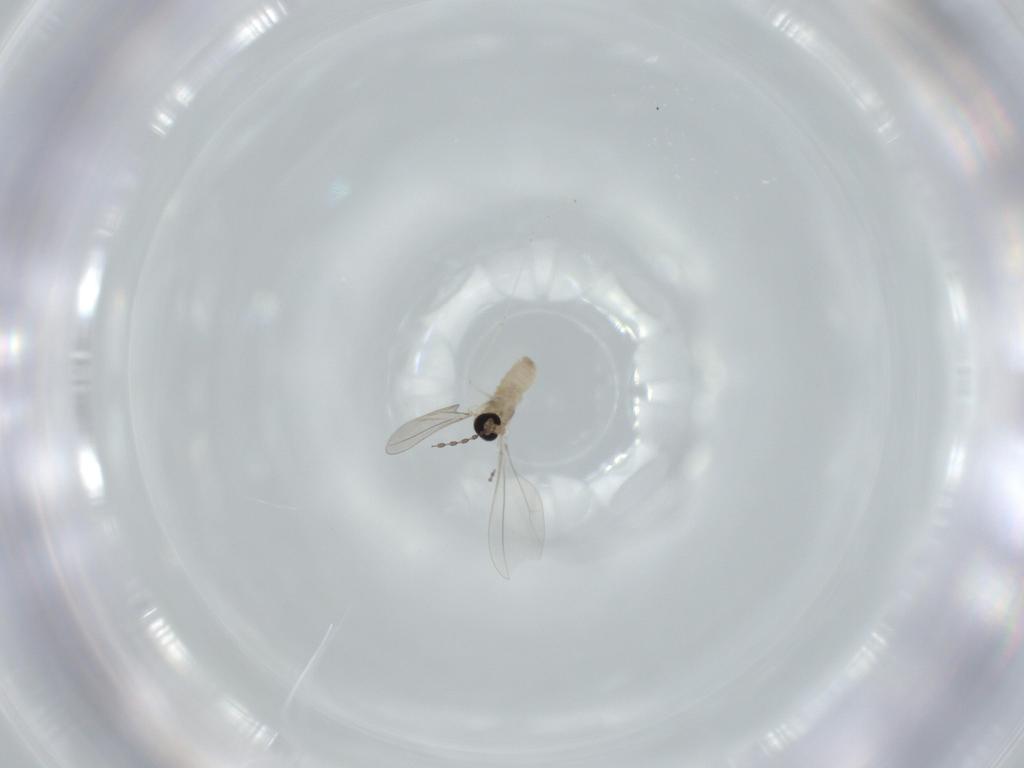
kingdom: Animalia
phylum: Arthropoda
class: Insecta
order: Diptera
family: Cecidomyiidae
